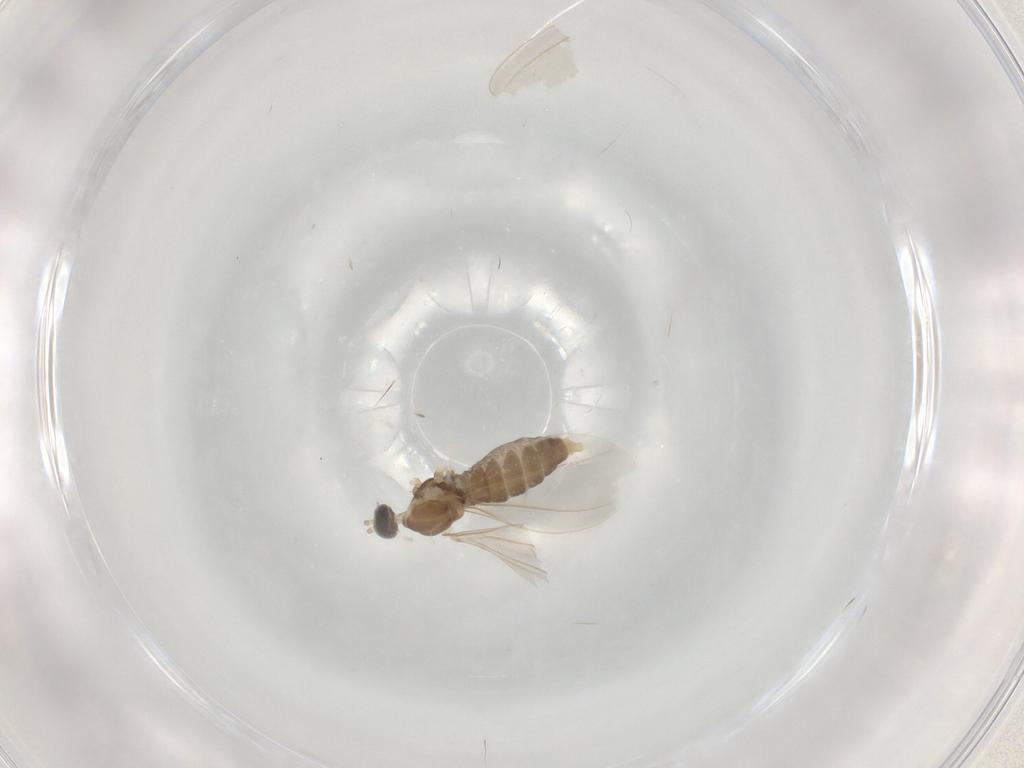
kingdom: Animalia
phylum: Arthropoda
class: Insecta
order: Diptera
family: Cecidomyiidae
